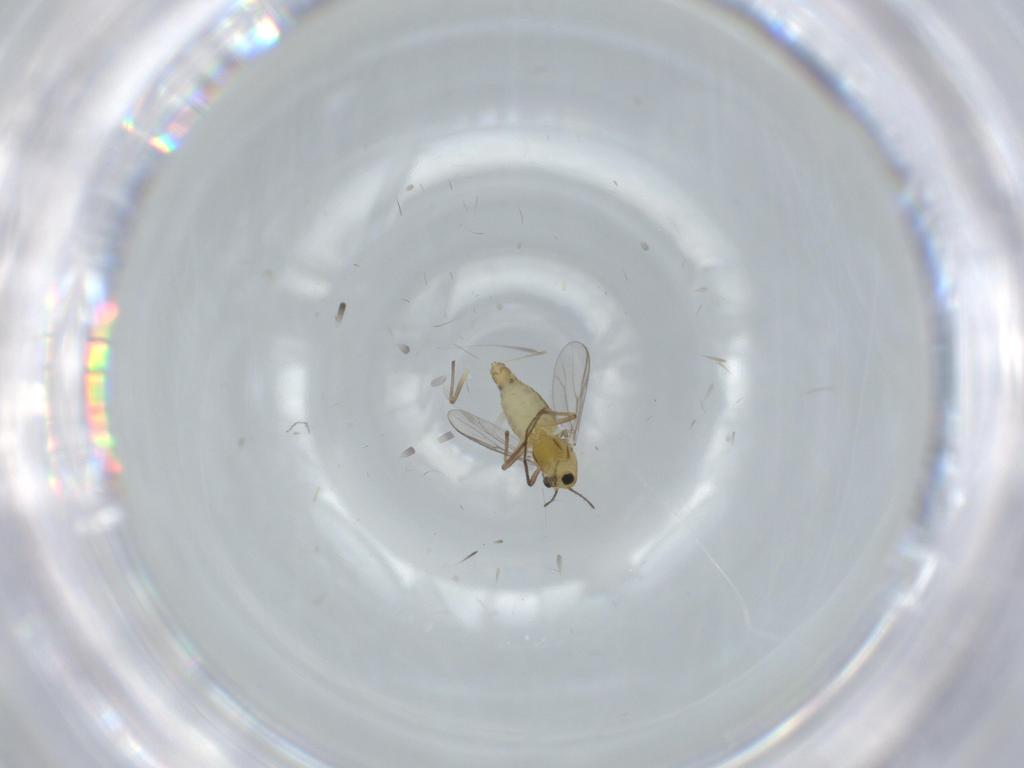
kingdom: Animalia
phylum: Arthropoda
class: Insecta
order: Diptera
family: Chironomidae
